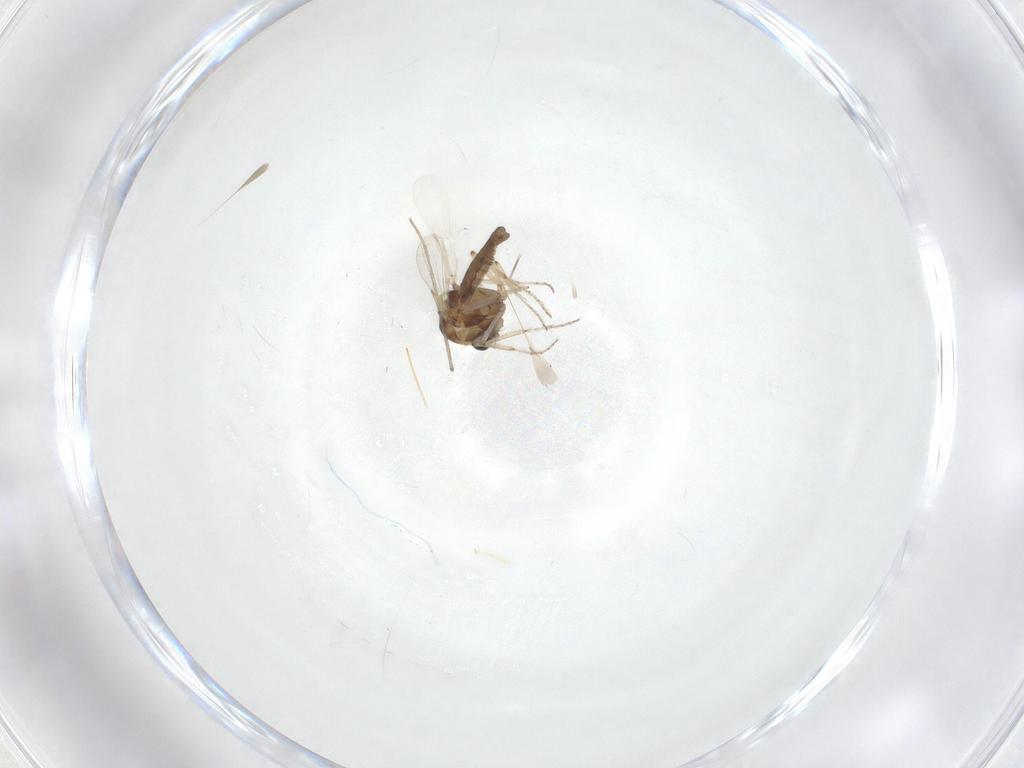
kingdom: Animalia
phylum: Arthropoda
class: Insecta
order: Diptera
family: Ceratopogonidae
